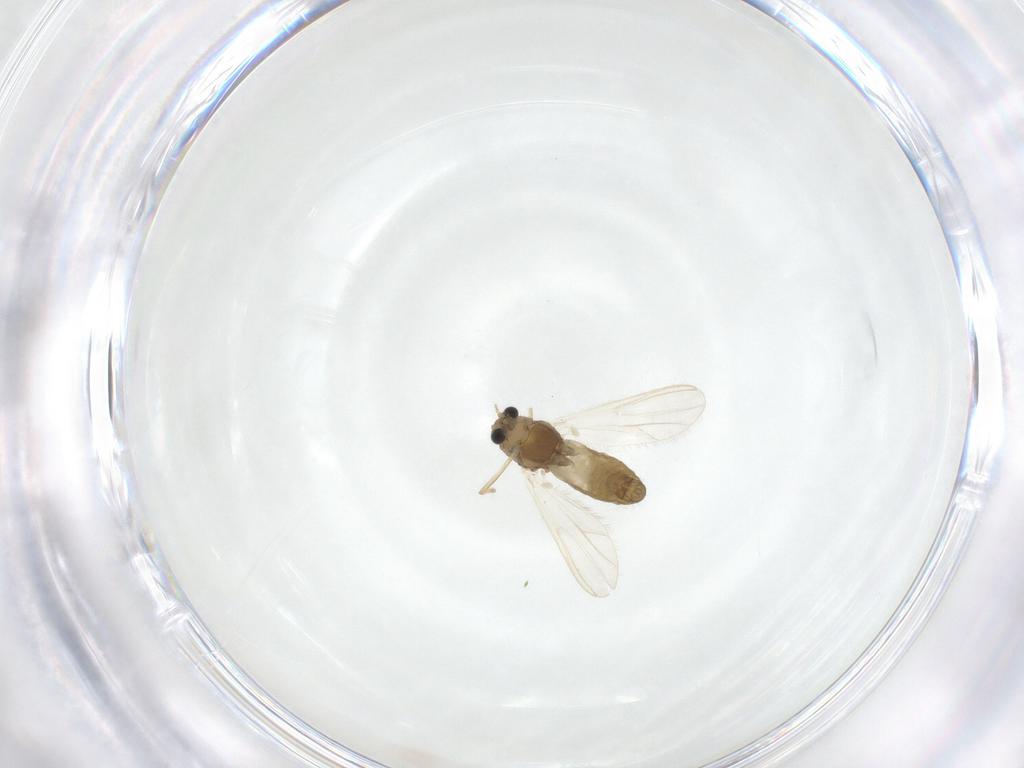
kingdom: Animalia
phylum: Arthropoda
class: Insecta
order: Diptera
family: Chironomidae
